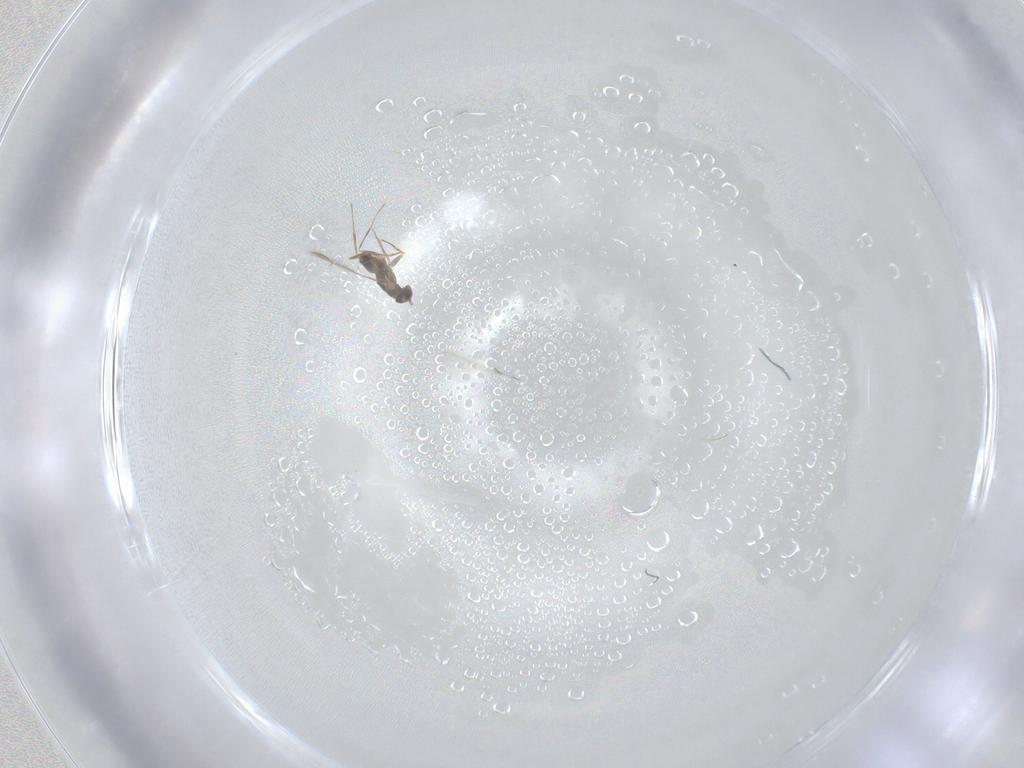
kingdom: Animalia
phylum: Arthropoda
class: Insecta
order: Hymenoptera
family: Mymaridae
